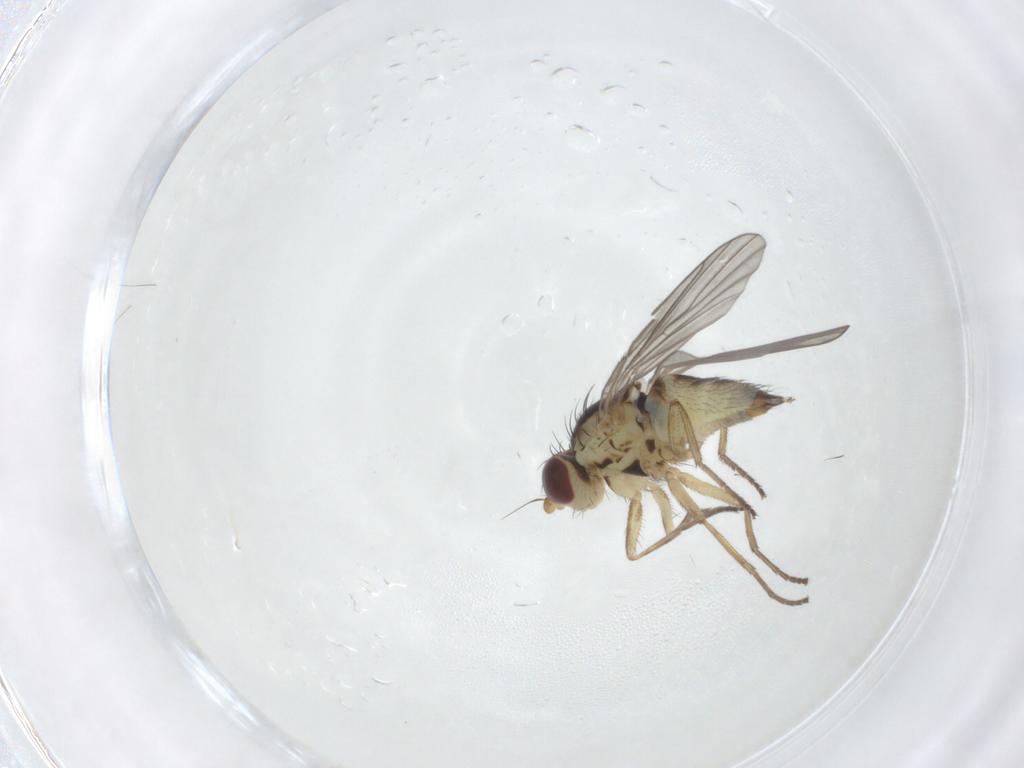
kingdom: Animalia
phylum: Arthropoda
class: Insecta
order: Diptera
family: Agromyzidae
